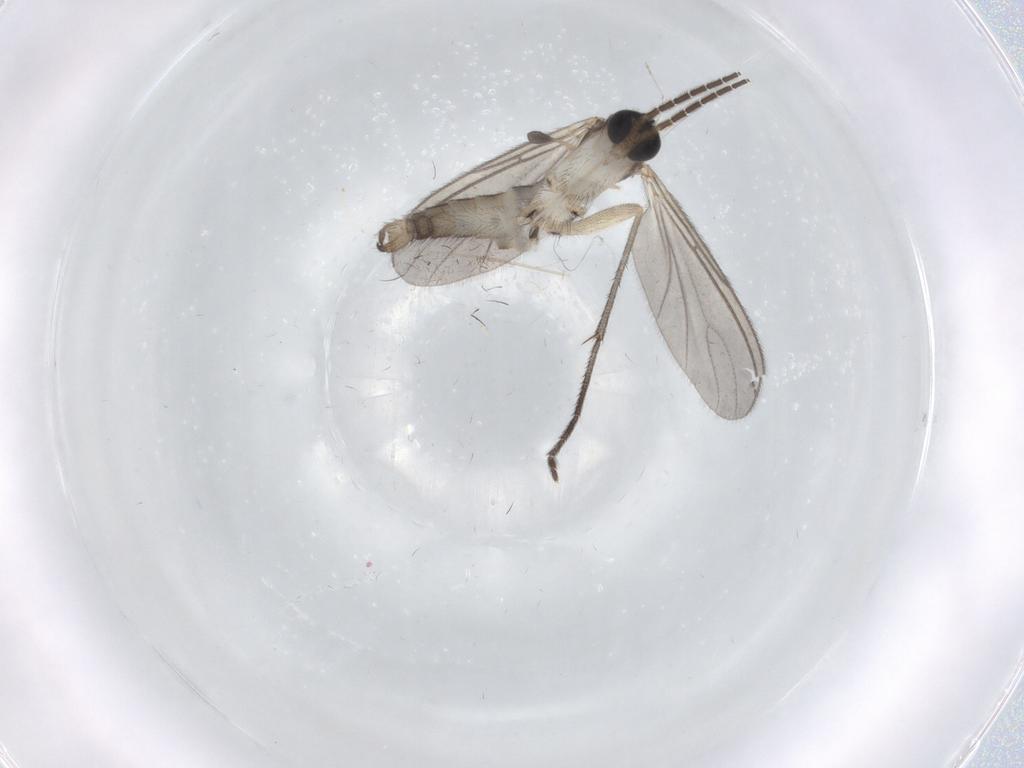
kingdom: Animalia
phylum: Arthropoda
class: Insecta
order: Diptera
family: Sciaridae
